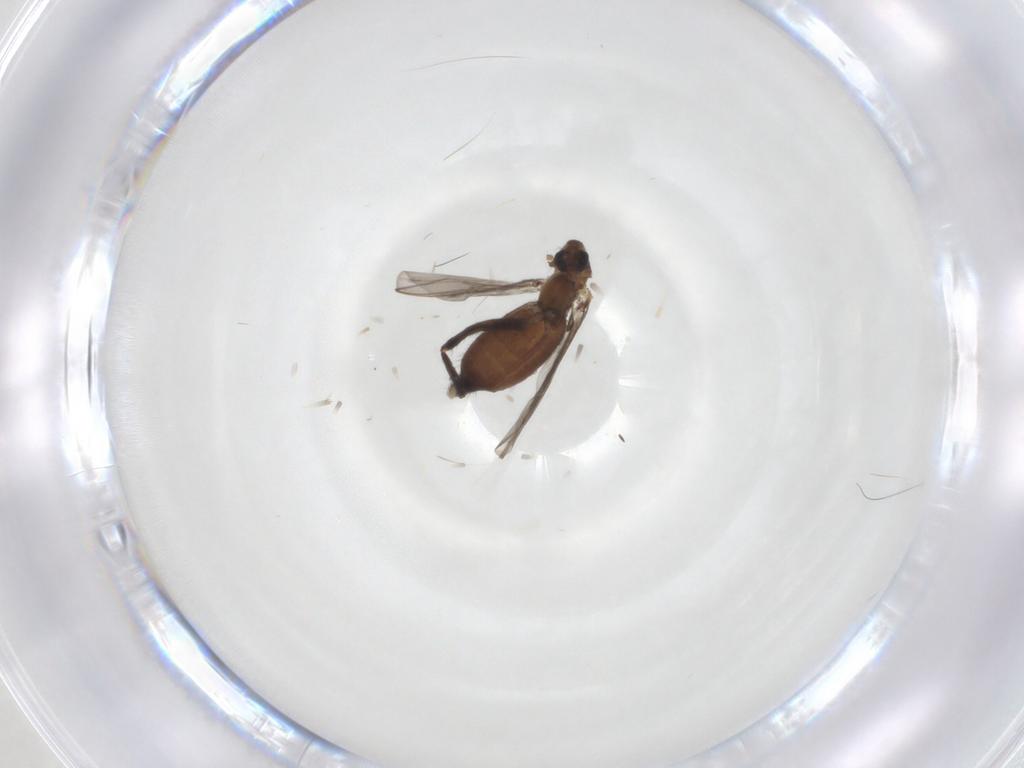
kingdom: Animalia
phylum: Arthropoda
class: Insecta
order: Diptera
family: Chironomidae
